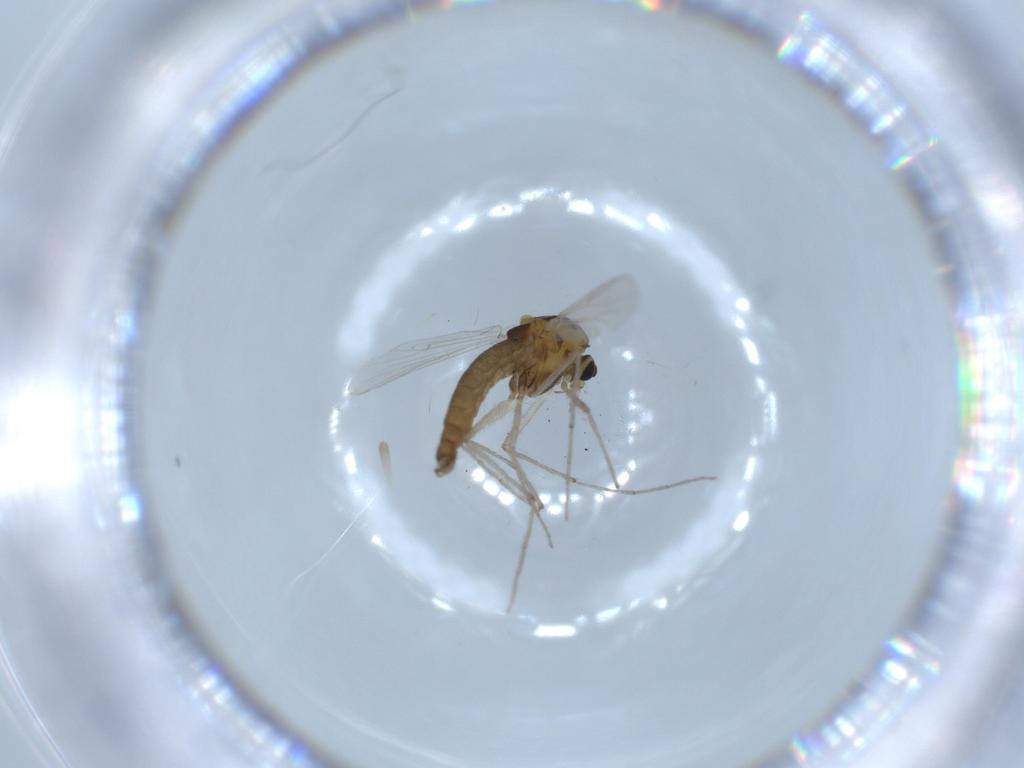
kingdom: Animalia
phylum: Arthropoda
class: Insecta
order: Diptera
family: Chironomidae
